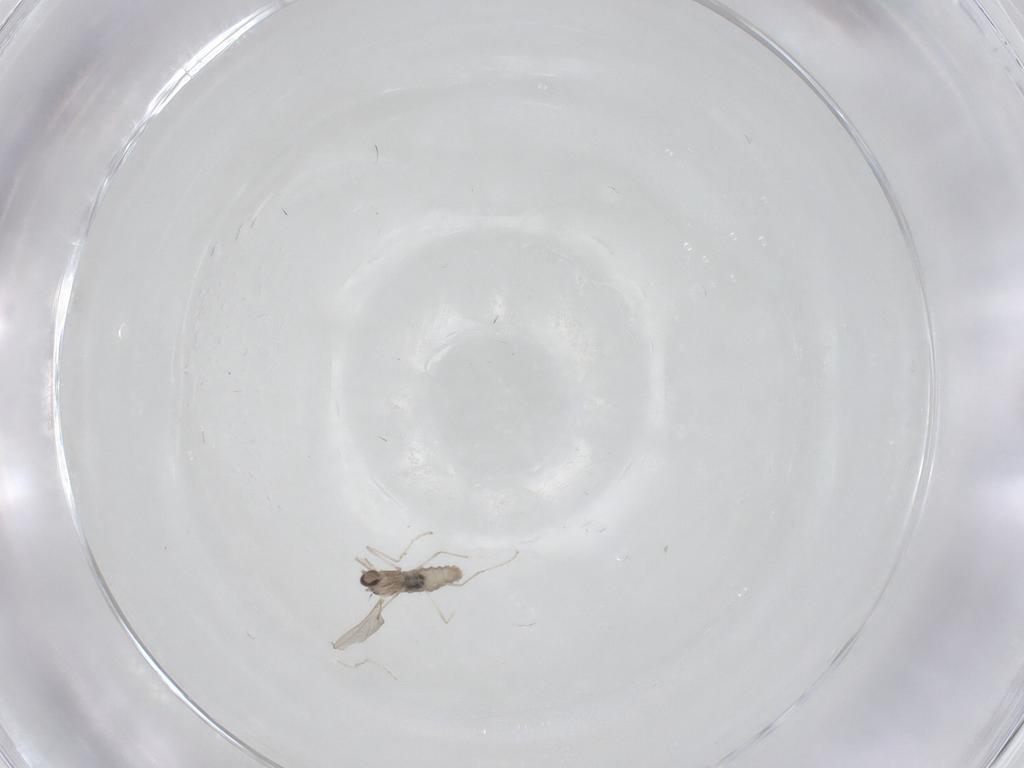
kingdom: Animalia
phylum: Arthropoda
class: Insecta
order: Diptera
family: Cecidomyiidae
